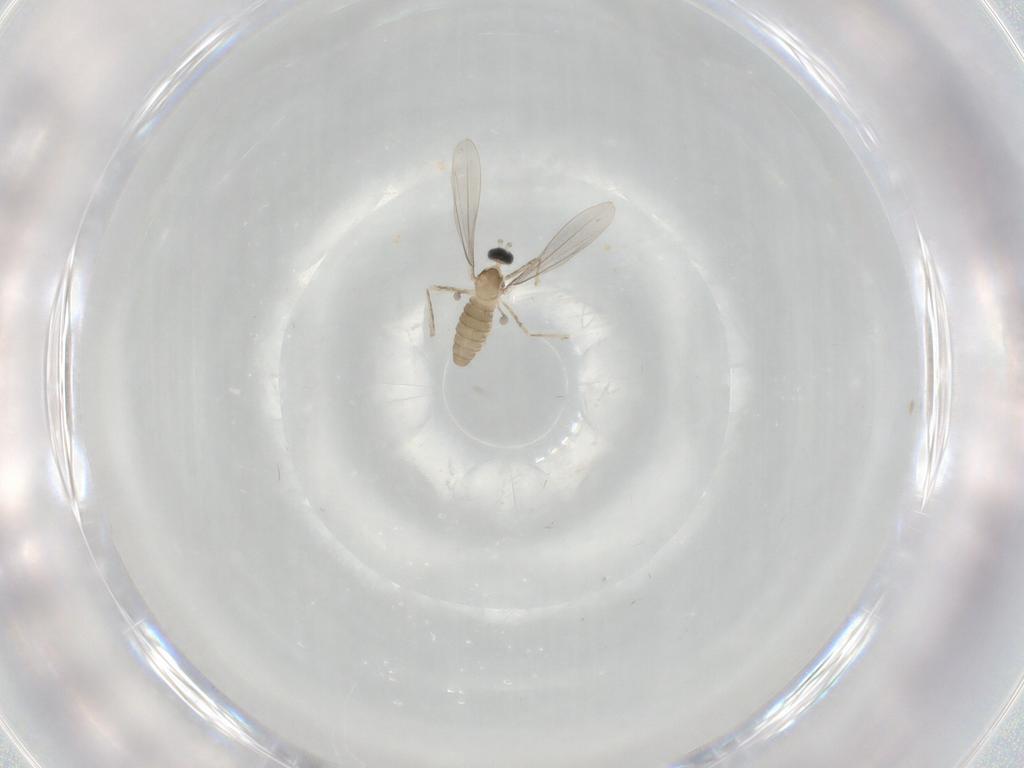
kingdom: Animalia
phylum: Arthropoda
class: Insecta
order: Diptera
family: Cecidomyiidae
